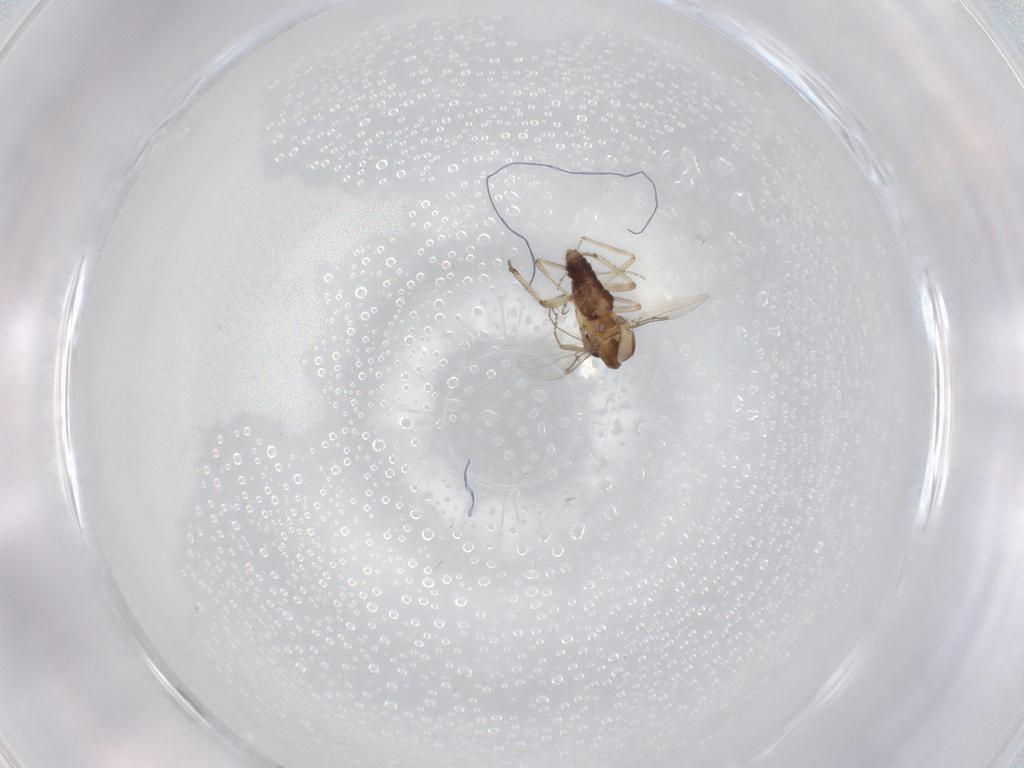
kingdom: Animalia
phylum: Arthropoda
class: Insecta
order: Diptera
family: Ceratopogonidae
